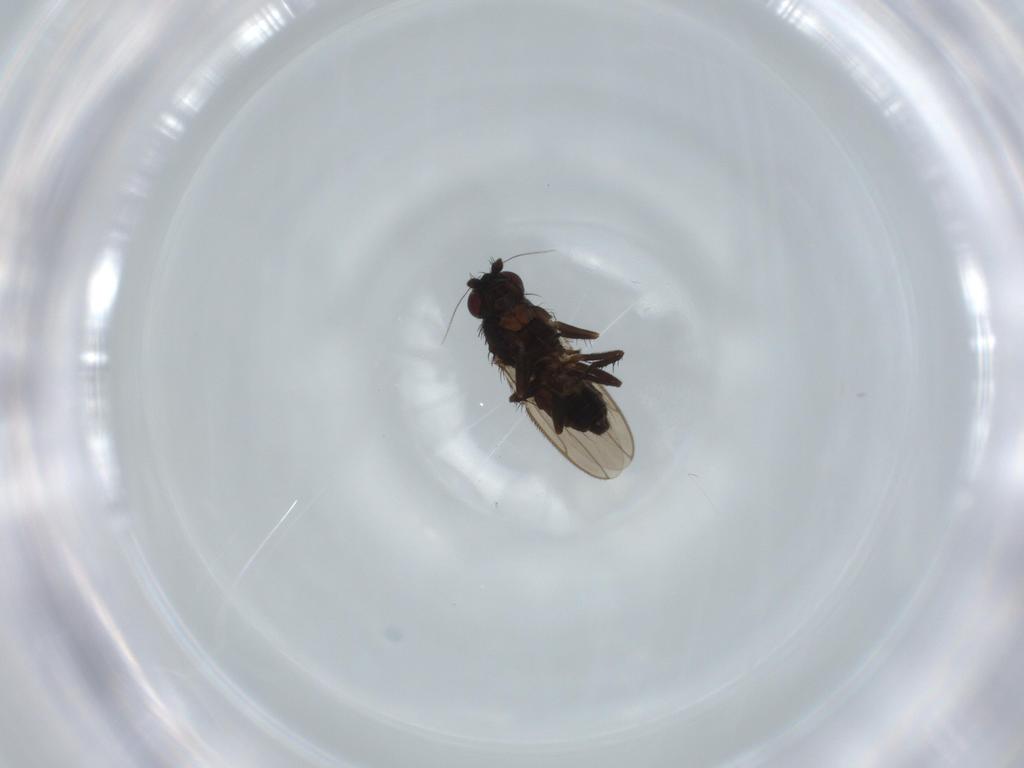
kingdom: Animalia
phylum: Arthropoda
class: Insecta
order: Diptera
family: Sphaeroceridae
